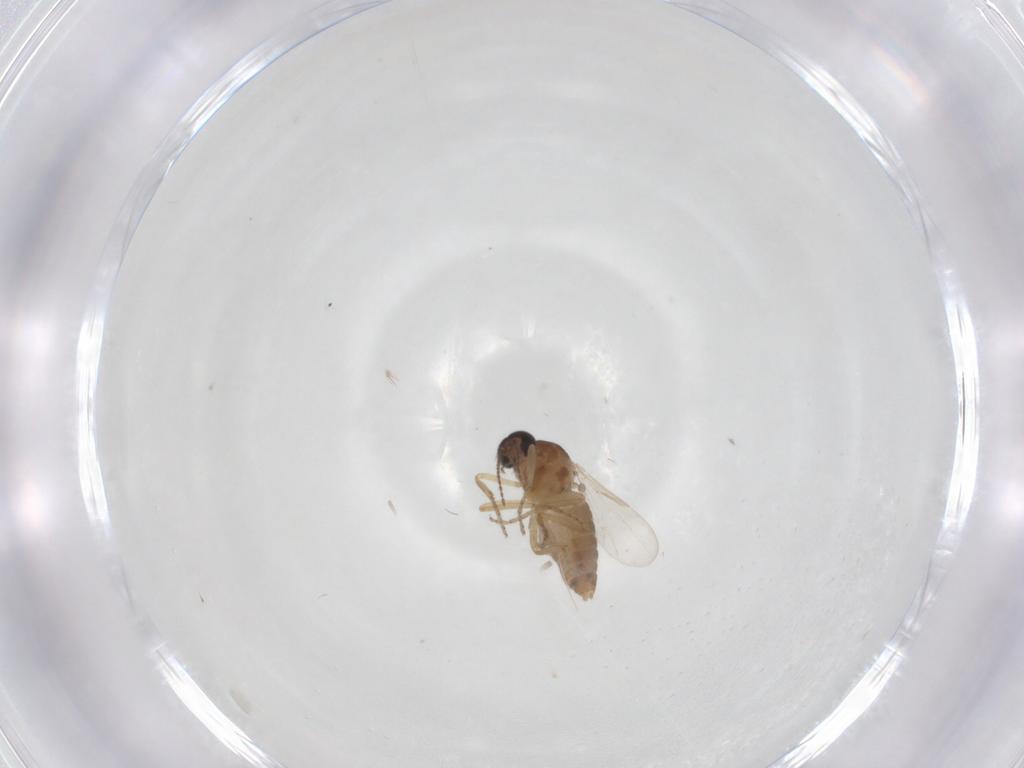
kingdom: Animalia
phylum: Arthropoda
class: Insecta
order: Diptera
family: Ceratopogonidae
